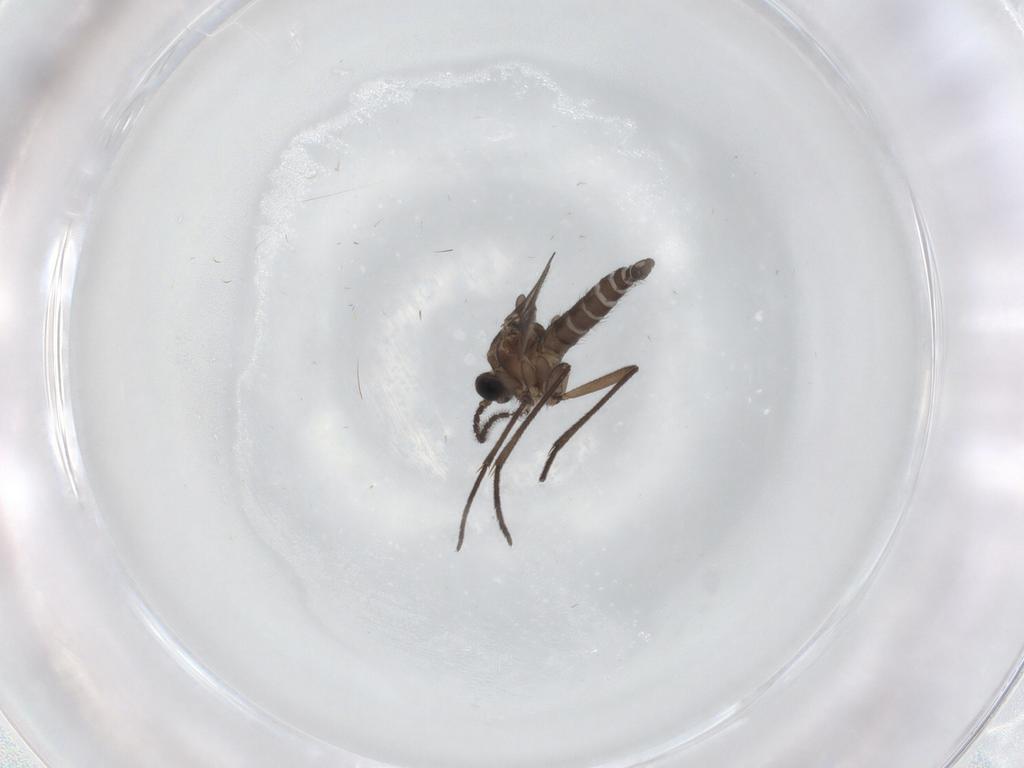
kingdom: Animalia
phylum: Arthropoda
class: Insecta
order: Diptera
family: Sciaridae
